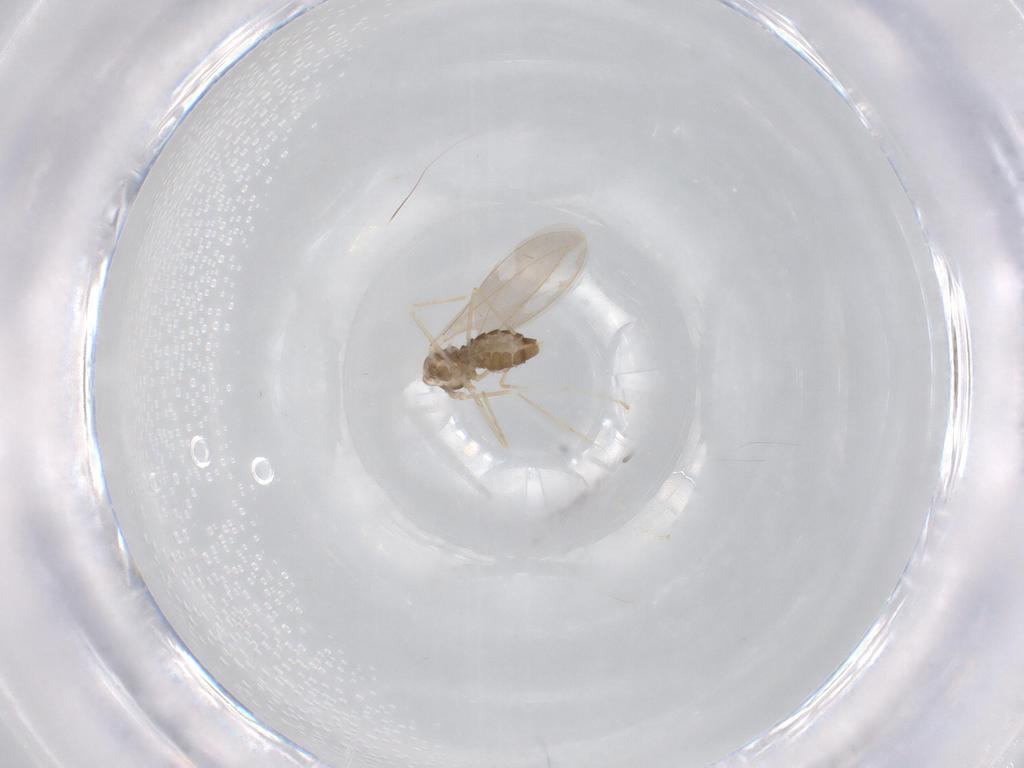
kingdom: Animalia
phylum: Arthropoda
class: Insecta
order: Diptera
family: Cecidomyiidae
